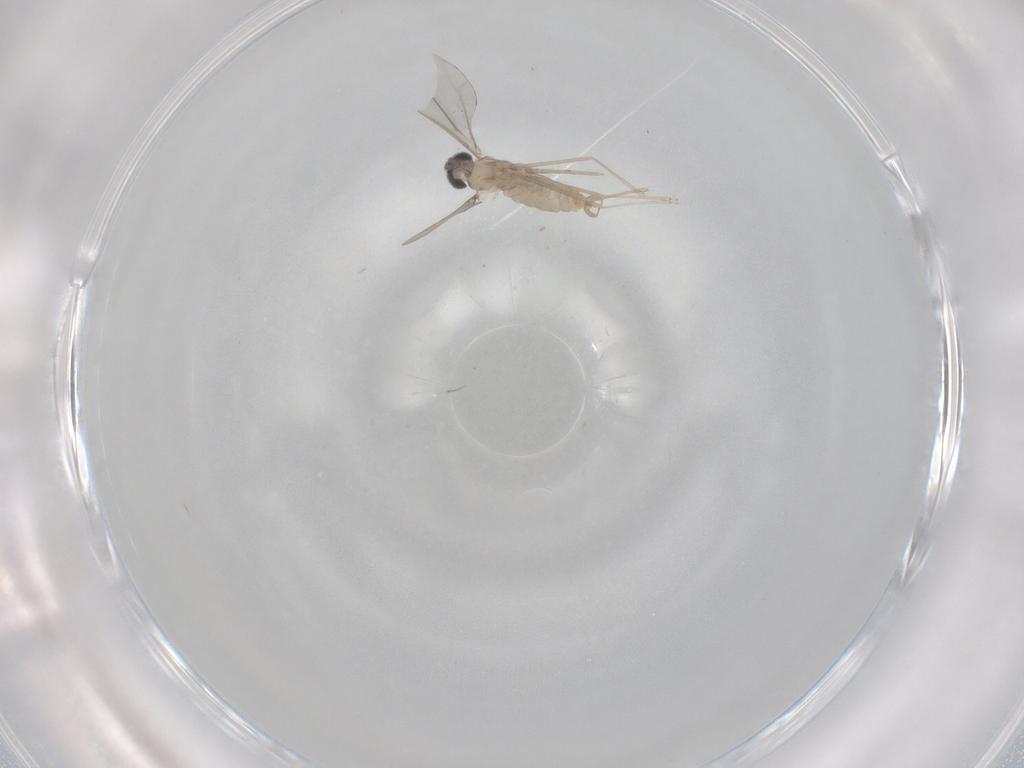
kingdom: Animalia
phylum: Arthropoda
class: Insecta
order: Diptera
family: Cecidomyiidae
